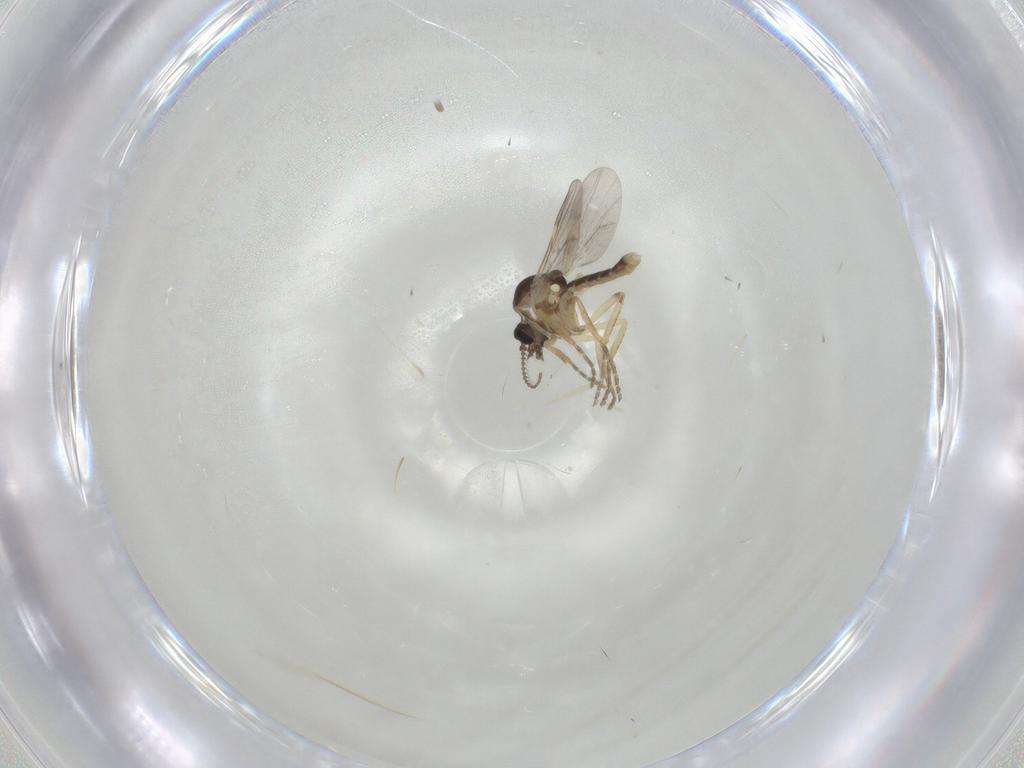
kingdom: Animalia
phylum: Arthropoda
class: Insecta
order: Diptera
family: Ceratopogonidae
